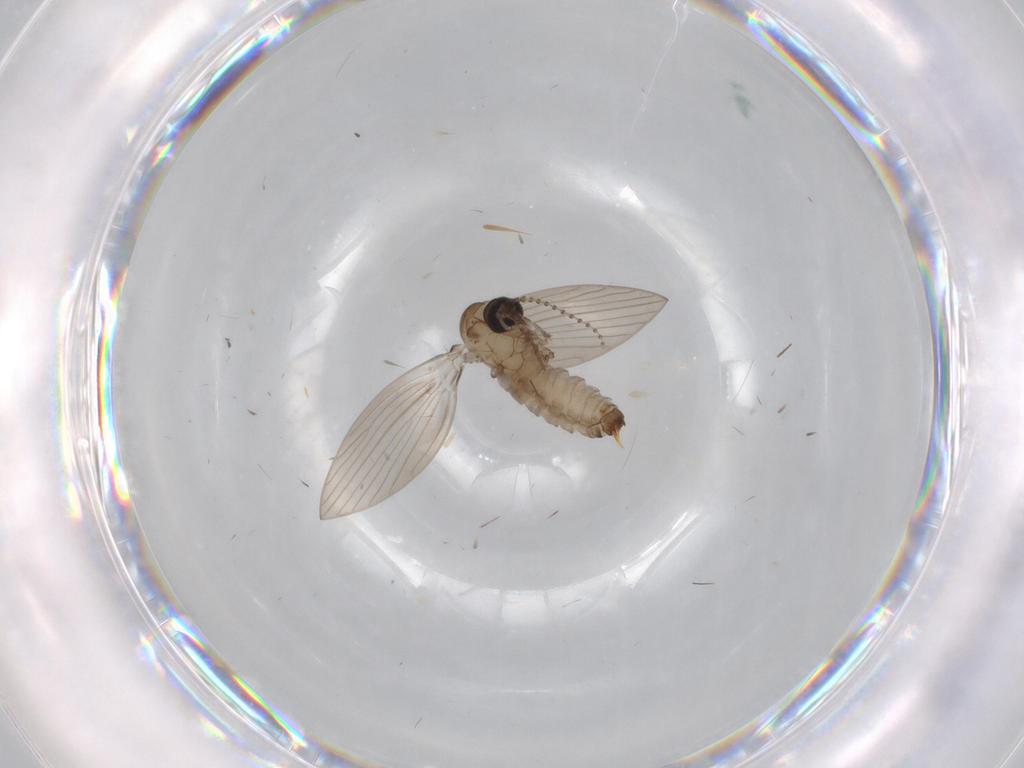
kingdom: Animalia
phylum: Arthropoda
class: Insecta
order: Diptera
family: Psychodidae
